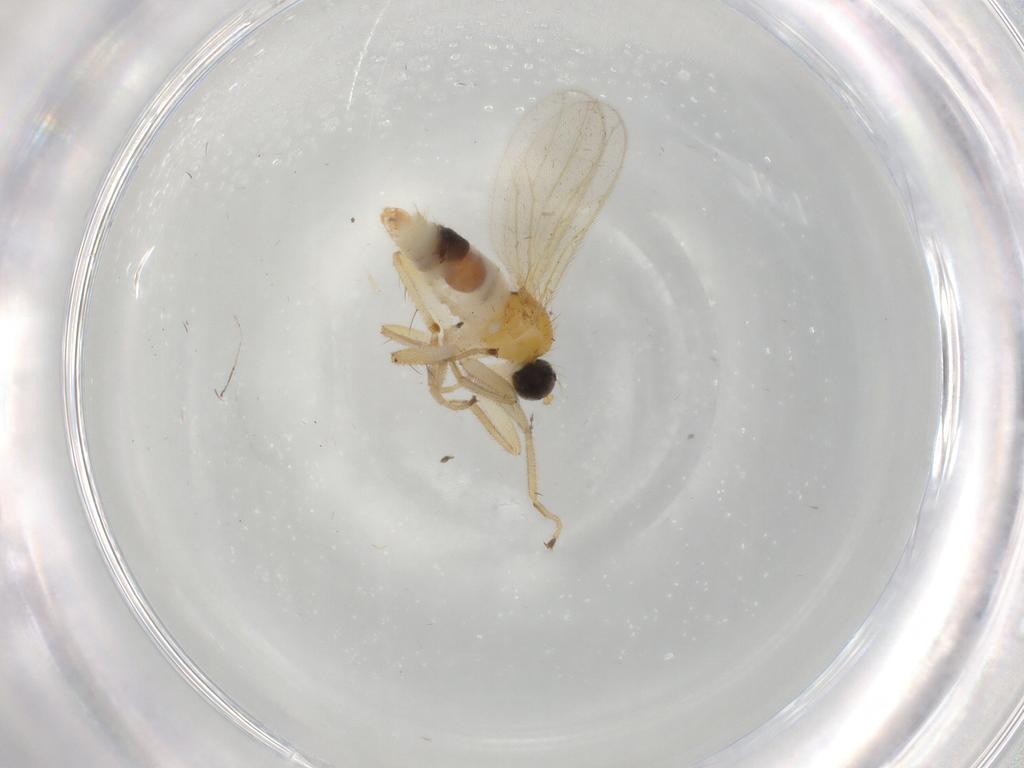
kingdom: Animalia
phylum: Arthropoda
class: Insecta
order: Diptera
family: Hybotidae
